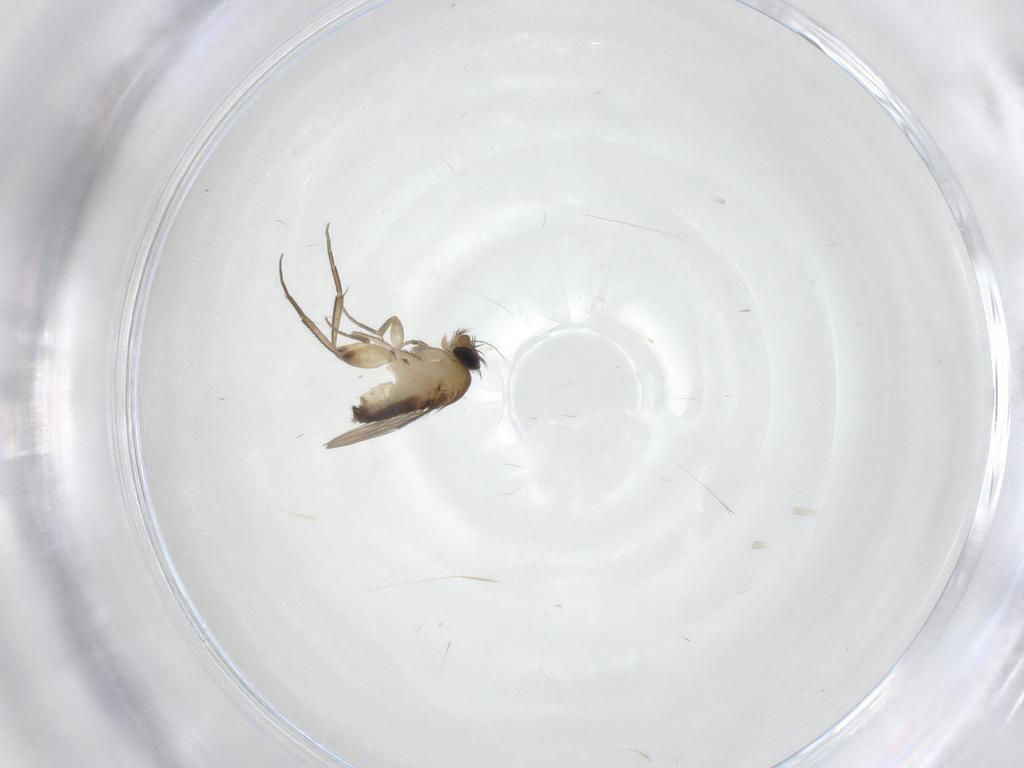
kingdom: Animalia
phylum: Arthropoda
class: Insecta
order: Diptera
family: Phoridae
